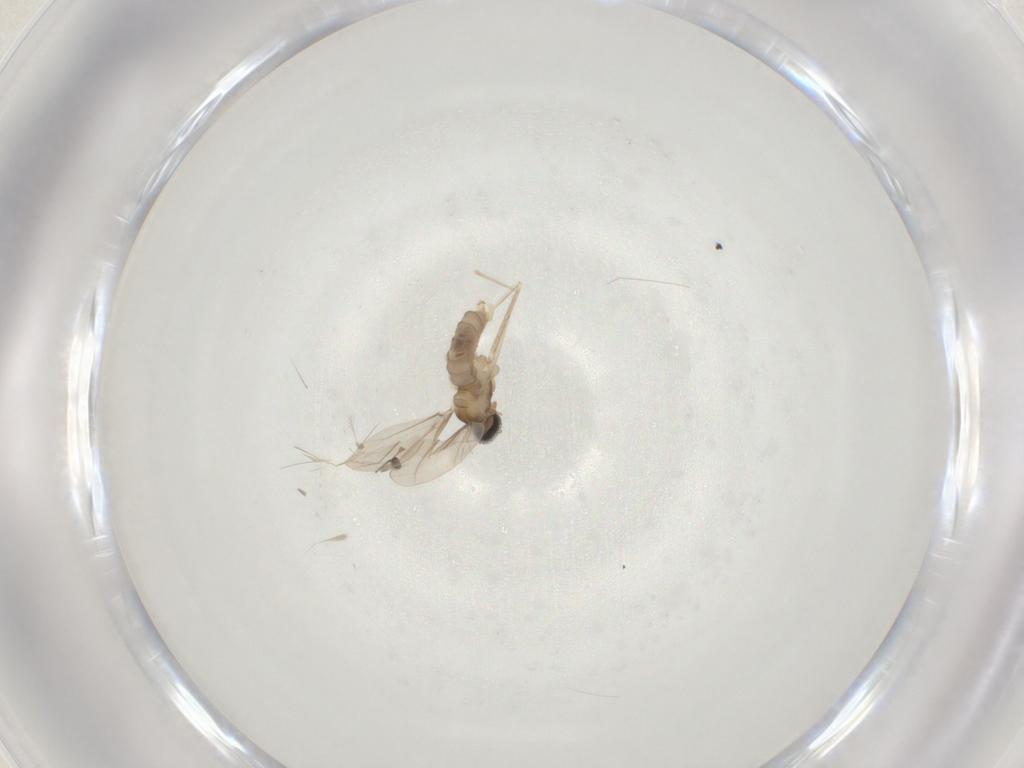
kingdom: Animalia
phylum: Arthropoda
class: Insecta
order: Diptera
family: Cecidomyiidae
